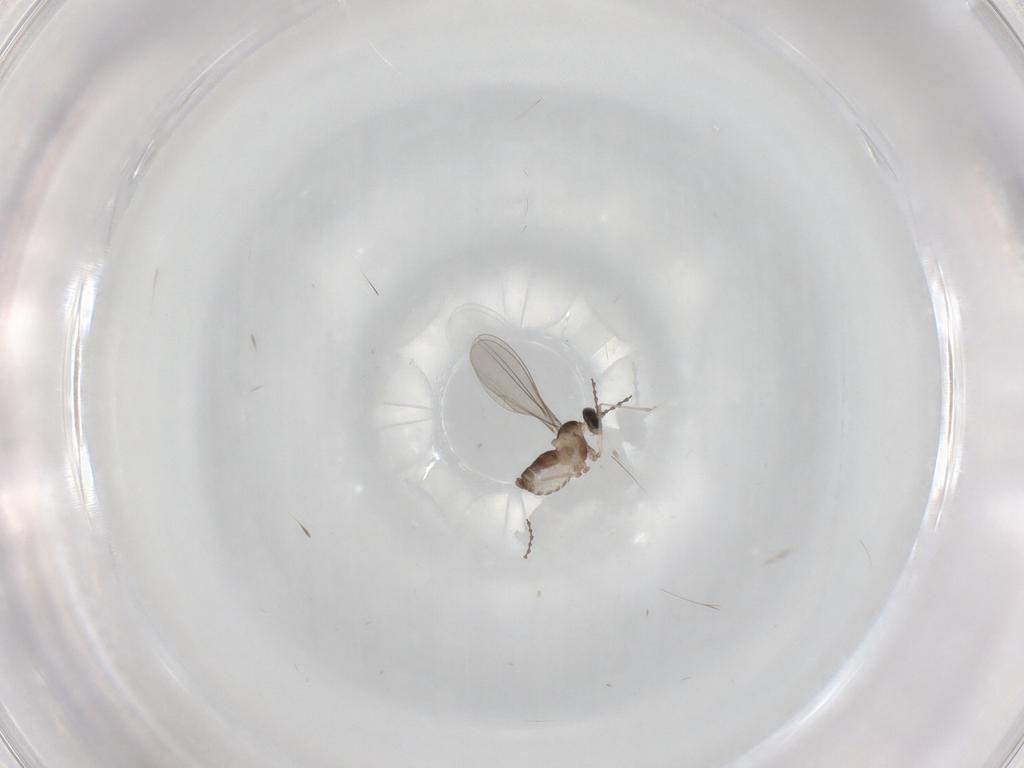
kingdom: Animalia
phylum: Arthropoda
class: Insecta
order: Diptera
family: Cecidomyiidae
